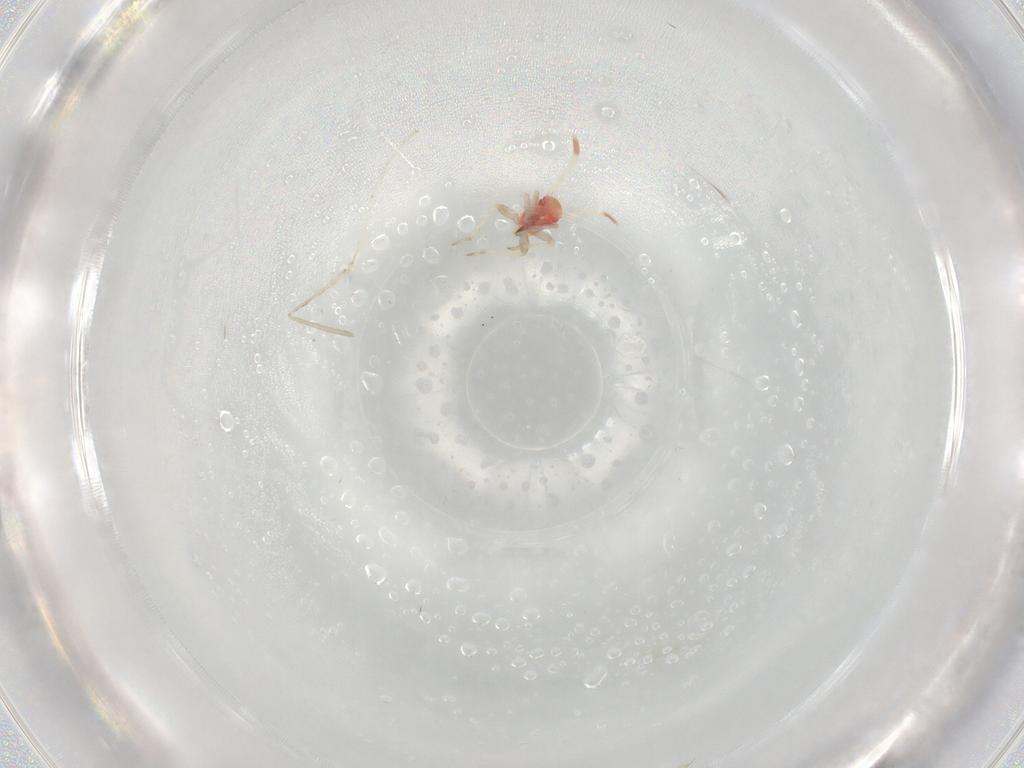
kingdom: Animalia
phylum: Arthropoda
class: Insecta
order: Hemiptera
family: Miridae
